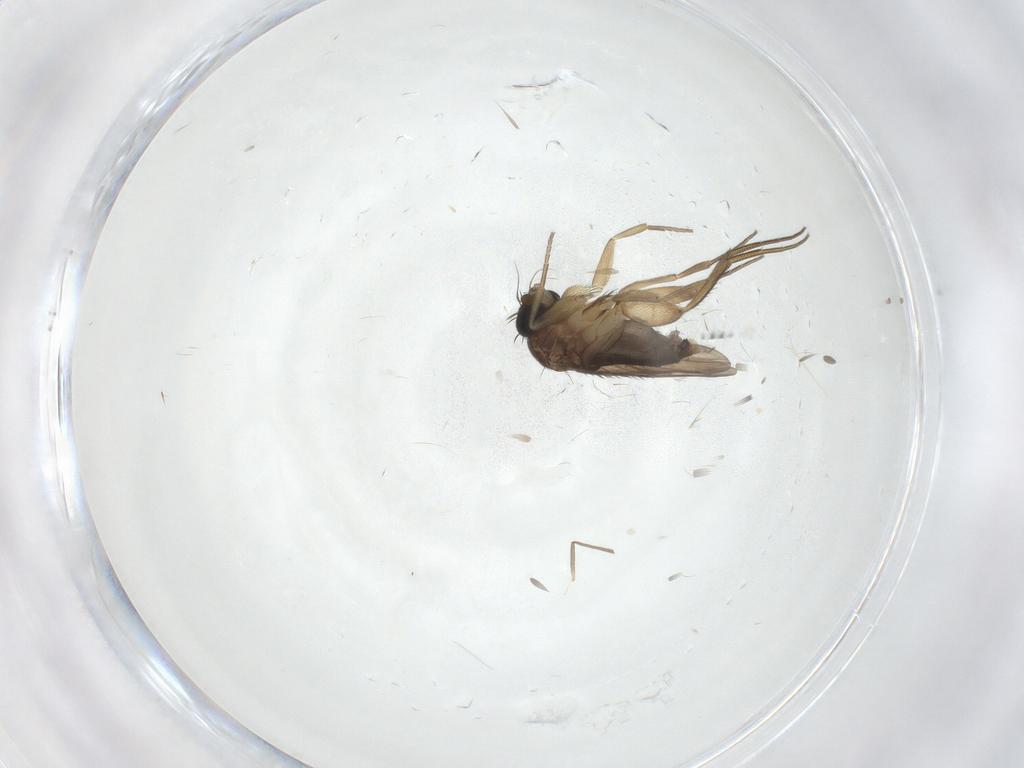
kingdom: Animalia
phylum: Arthropoda
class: Insecta
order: Diptera
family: Phoridae
